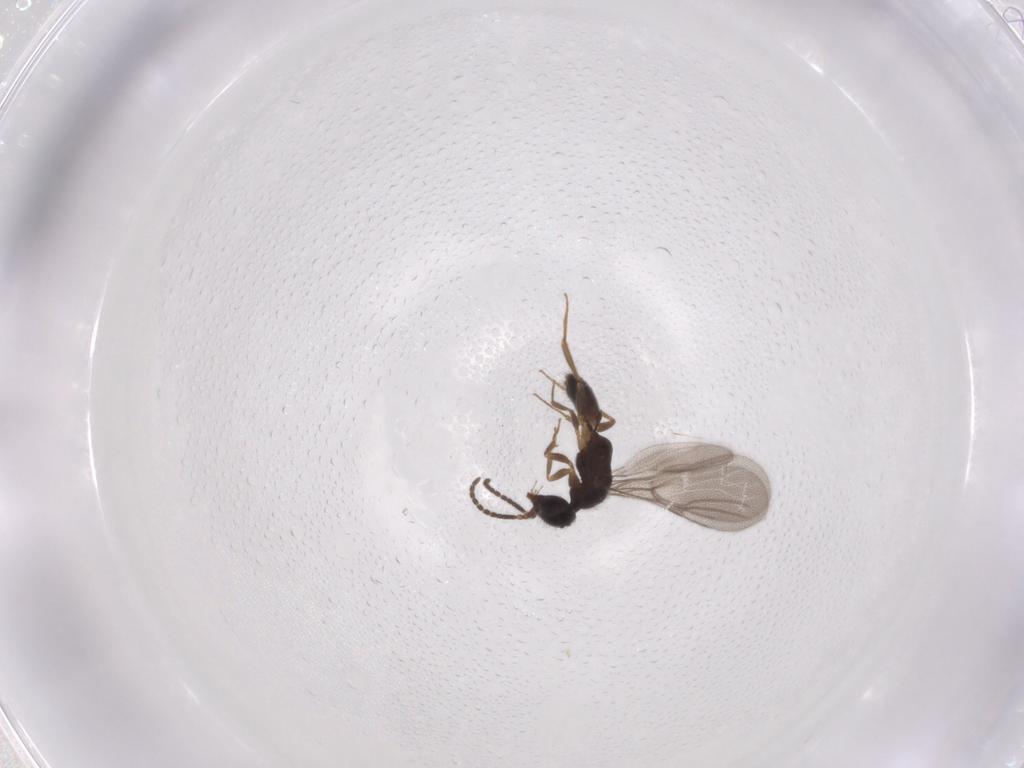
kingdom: Animalia
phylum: Arthropoda
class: Insecta
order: Hymenoptera
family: Bethylidae
